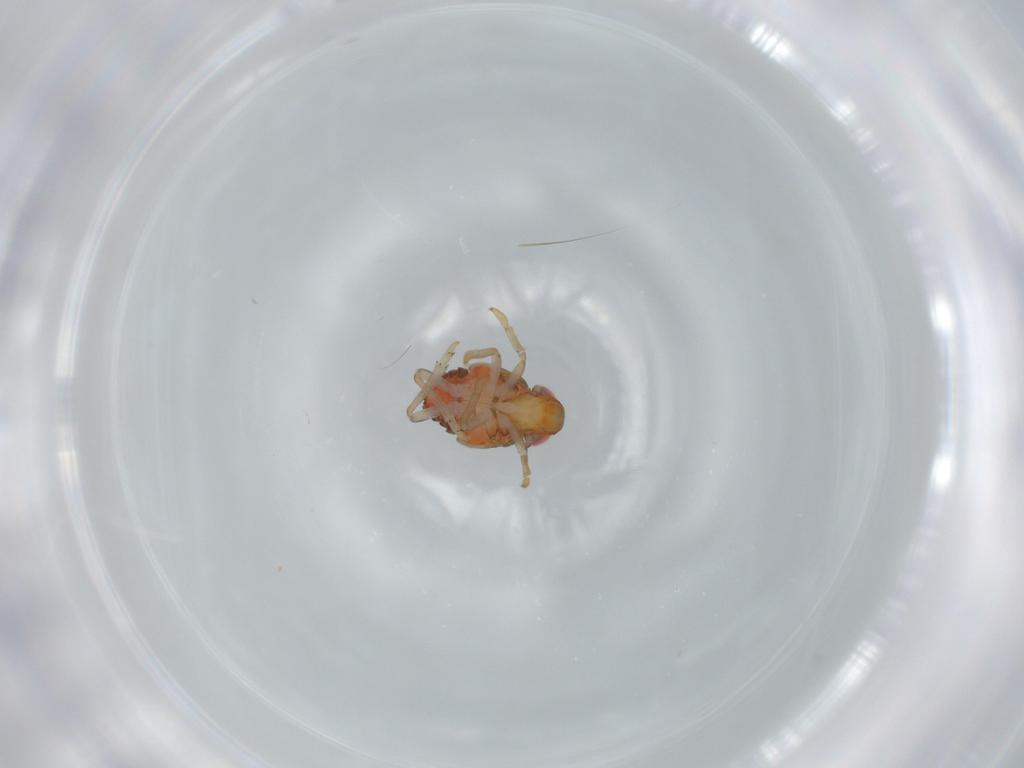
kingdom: Animalia
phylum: Arthropoda
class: Insecta
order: Hemiptera
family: Issidae
